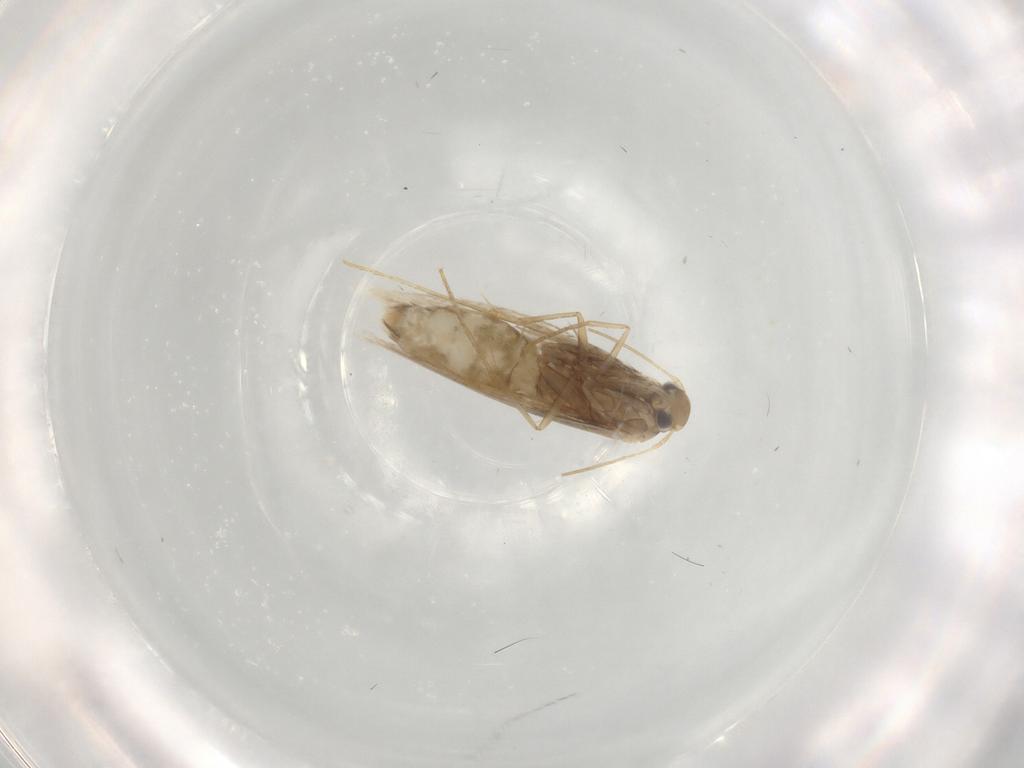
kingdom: Animalia
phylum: Arthropoda
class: Insecta
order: Lepidoptera
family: Gracillariidae
